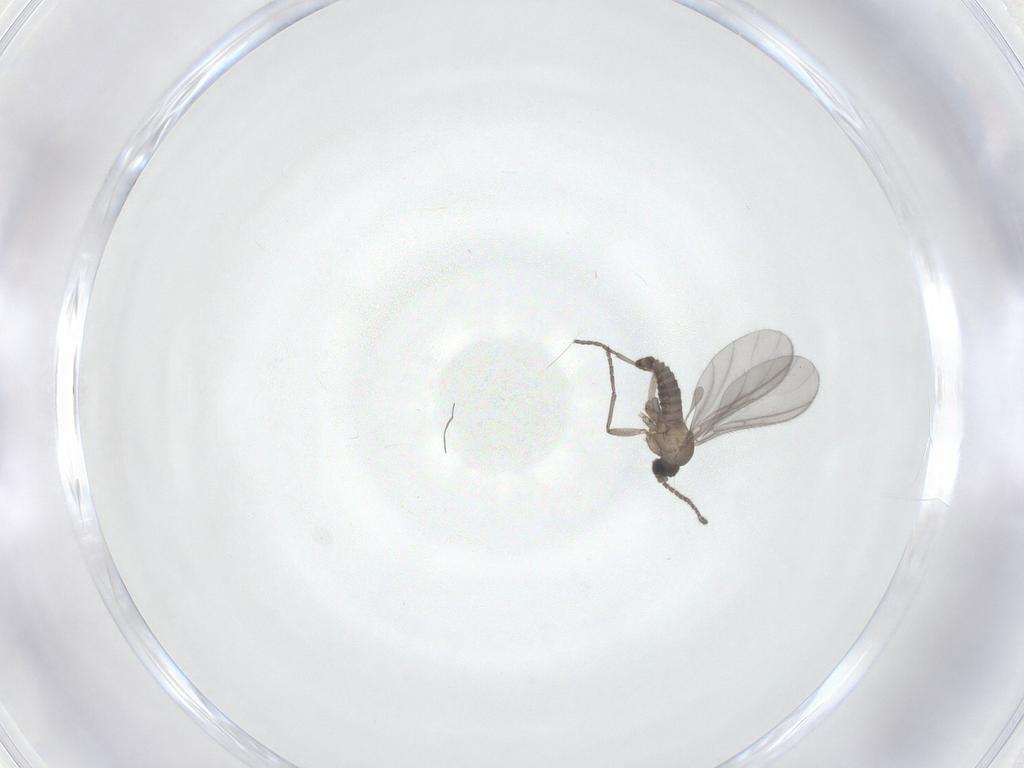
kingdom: Animalia
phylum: Arthropoda
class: Insecta
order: Diptera
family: Sciaridae
